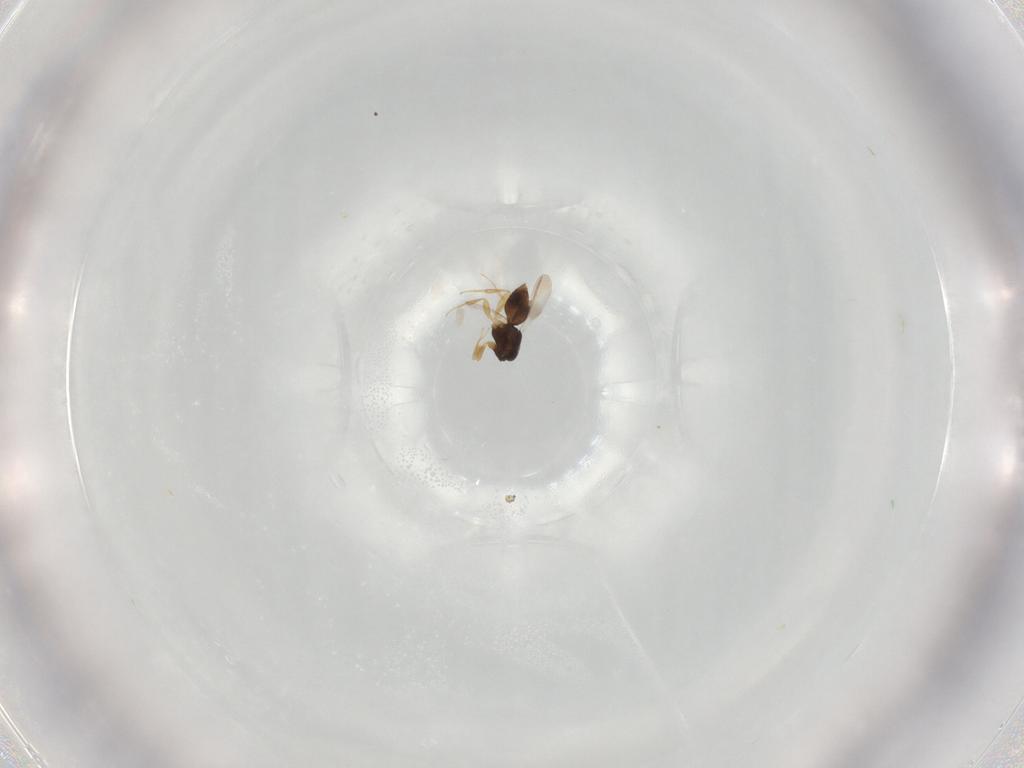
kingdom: Animalia
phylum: Arthropoda
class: Insecta
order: Hymenoptera
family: Ceraphronidae
